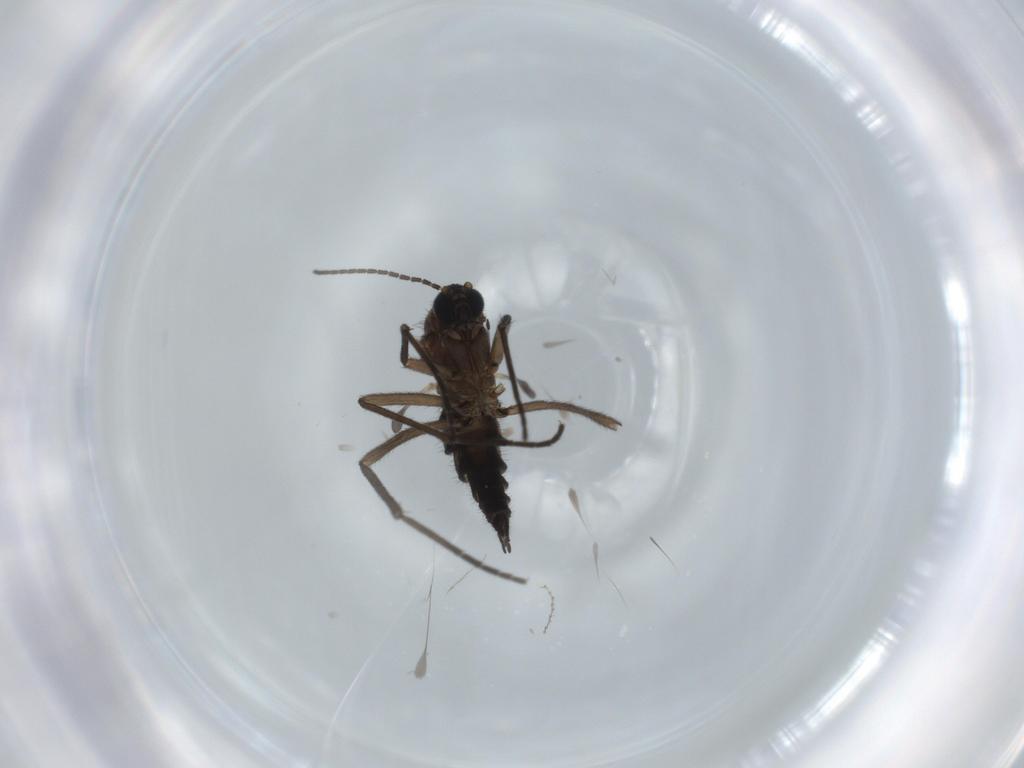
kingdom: Animalia
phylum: Arthropoda
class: Insecta
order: Diptera
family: Sciaridae
